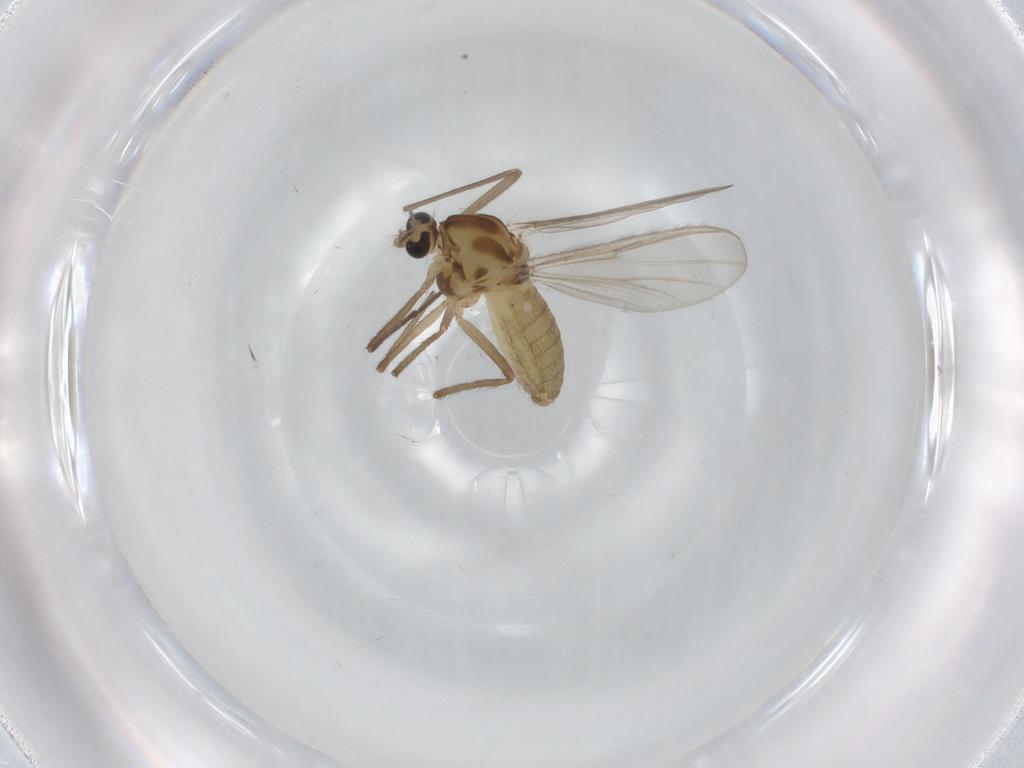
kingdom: Animalia
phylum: Arthropoda
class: Insecta
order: Diptera
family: Chironomidae
